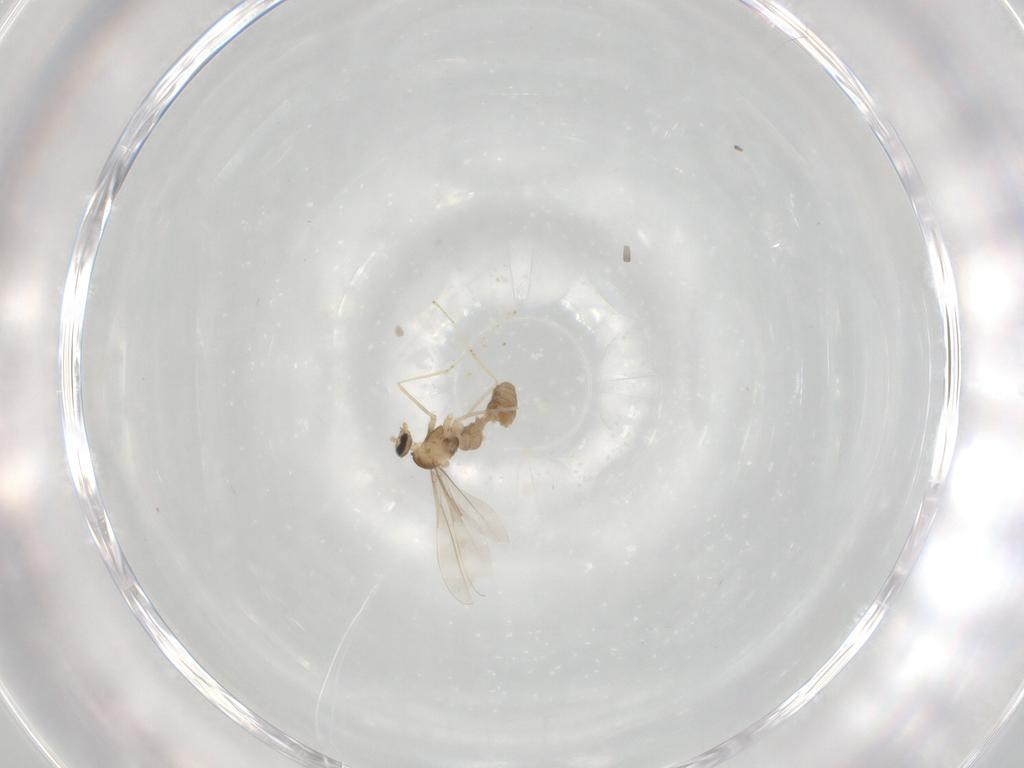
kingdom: Animalia
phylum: Arthropoda
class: Insecta
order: Diptera
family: Cecidomyiidae
